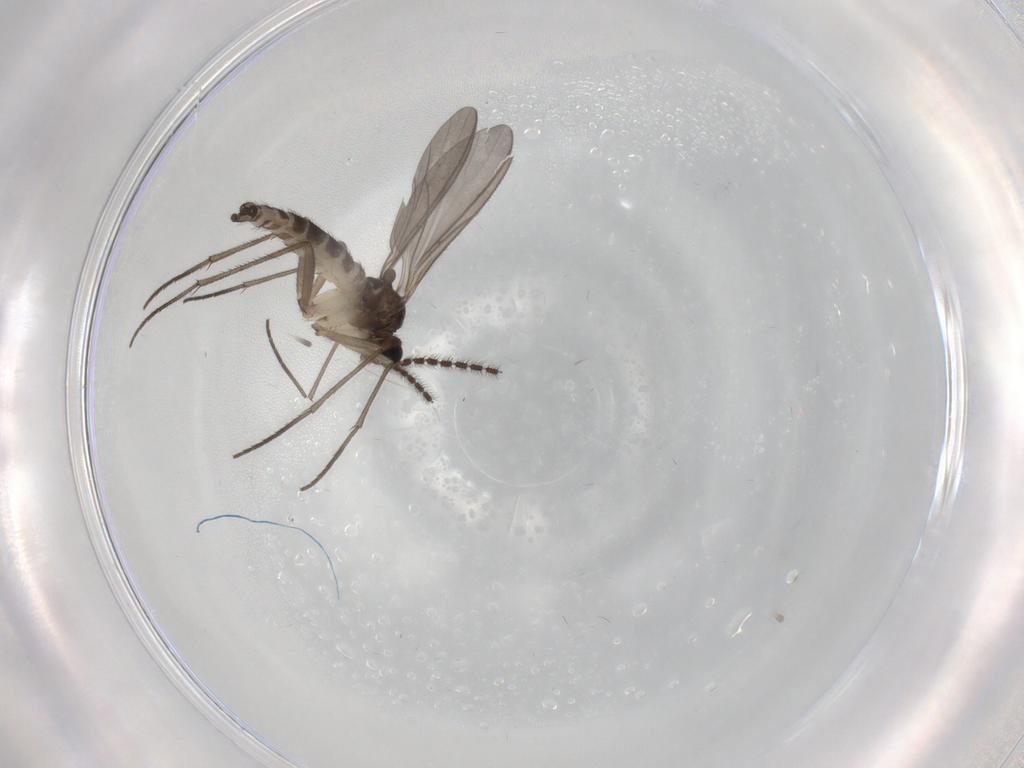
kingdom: Animalia
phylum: Arthropoda
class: Insecta
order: Diptera
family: Sciaridae
